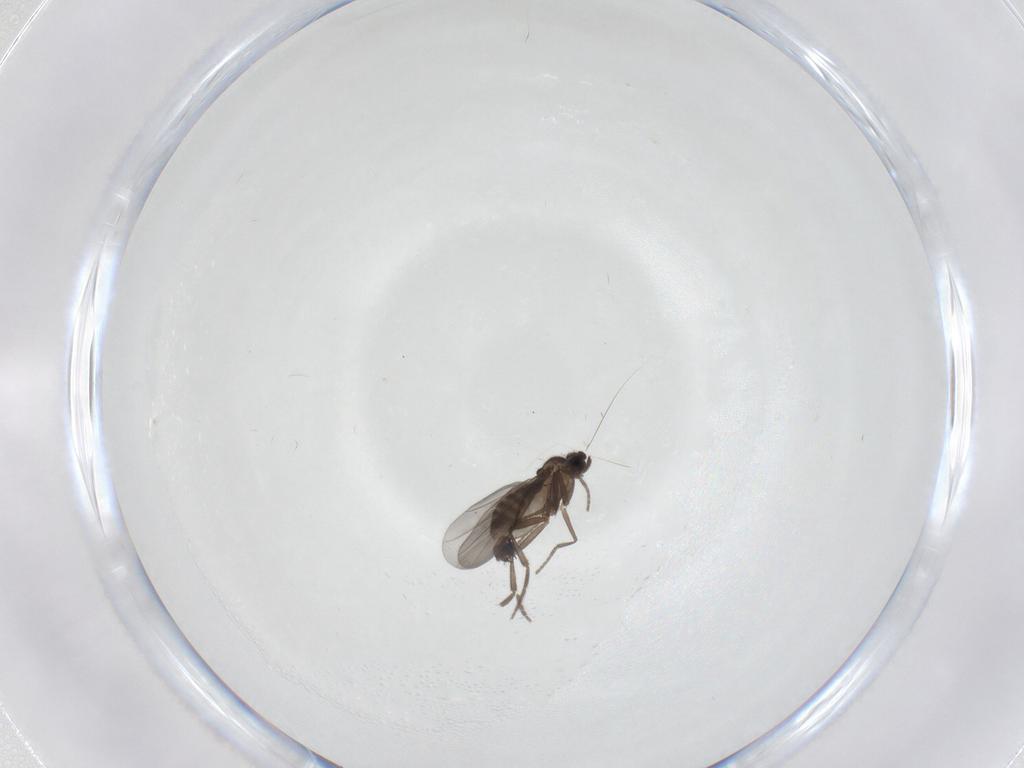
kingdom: Animalia
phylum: Arthropoda
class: Insecta
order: Diptera
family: Phoridae
